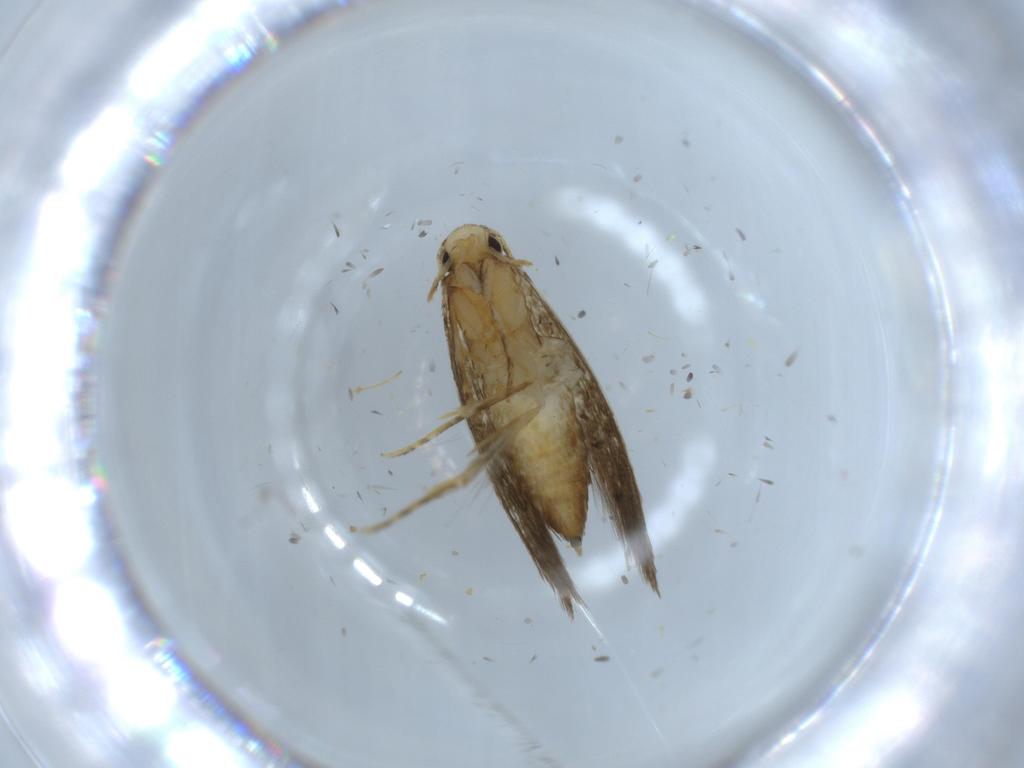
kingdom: Animalia
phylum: Arthropoda
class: Insecta
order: Lepidoptera
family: Tineidae
